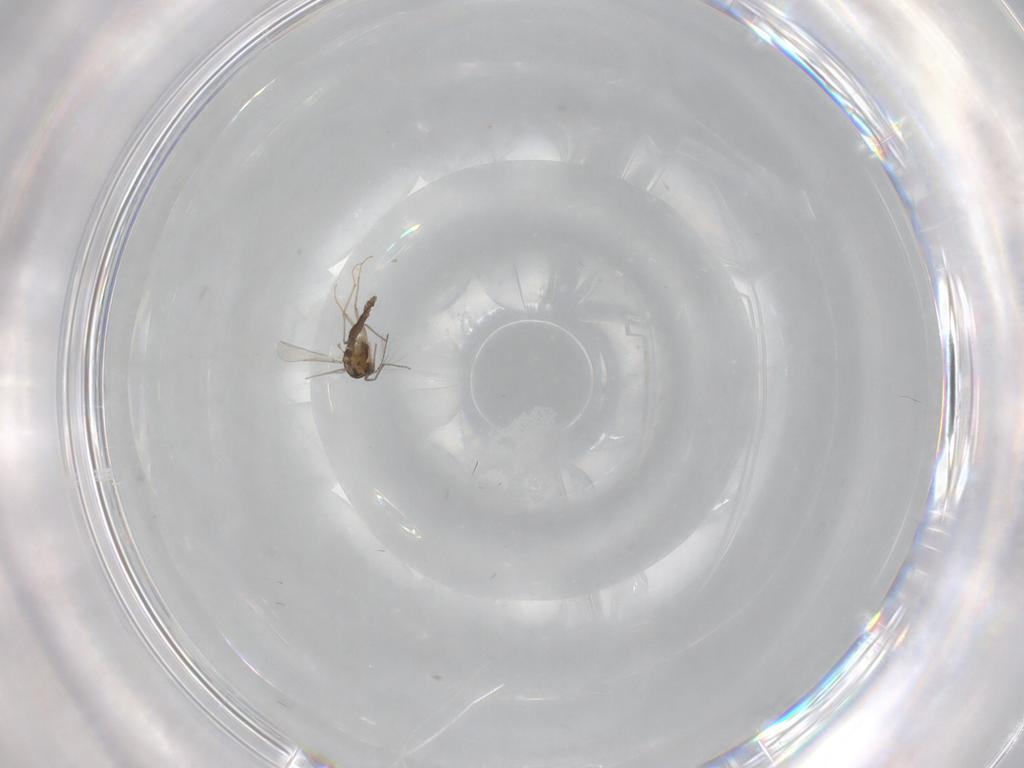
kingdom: Animalia
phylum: Arthropoda
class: Insecta
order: Diptera
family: Chironomidae
